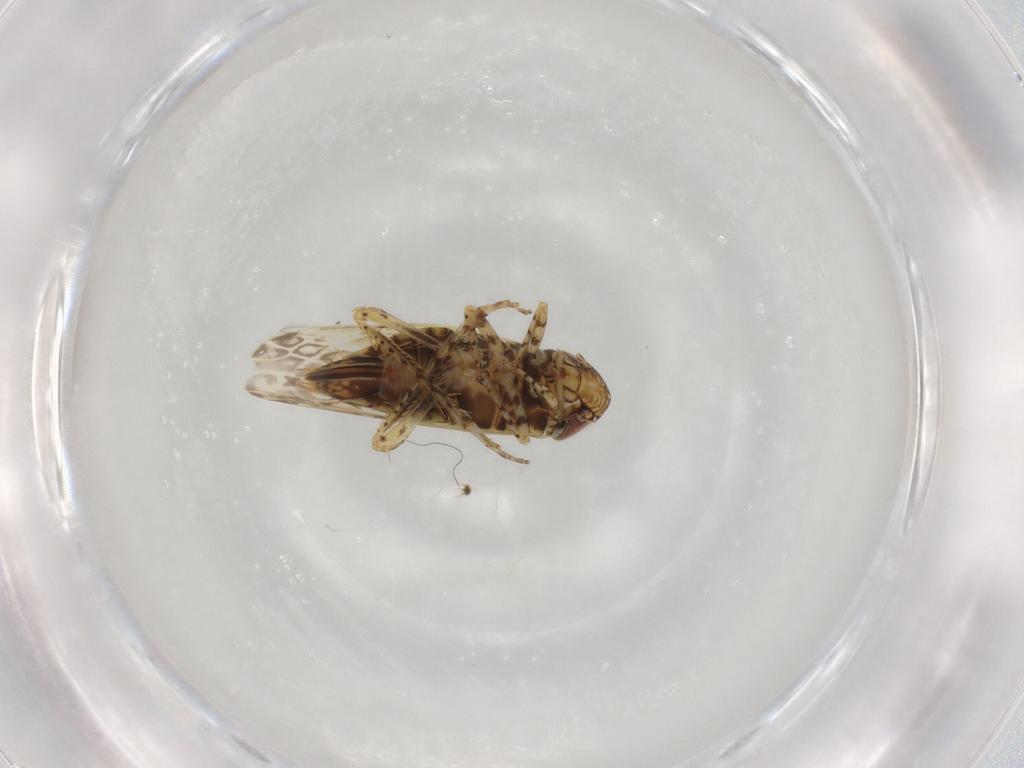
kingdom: Animalia
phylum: Arthropoda
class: Insecta
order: Hemiptera
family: Cicadellidae
